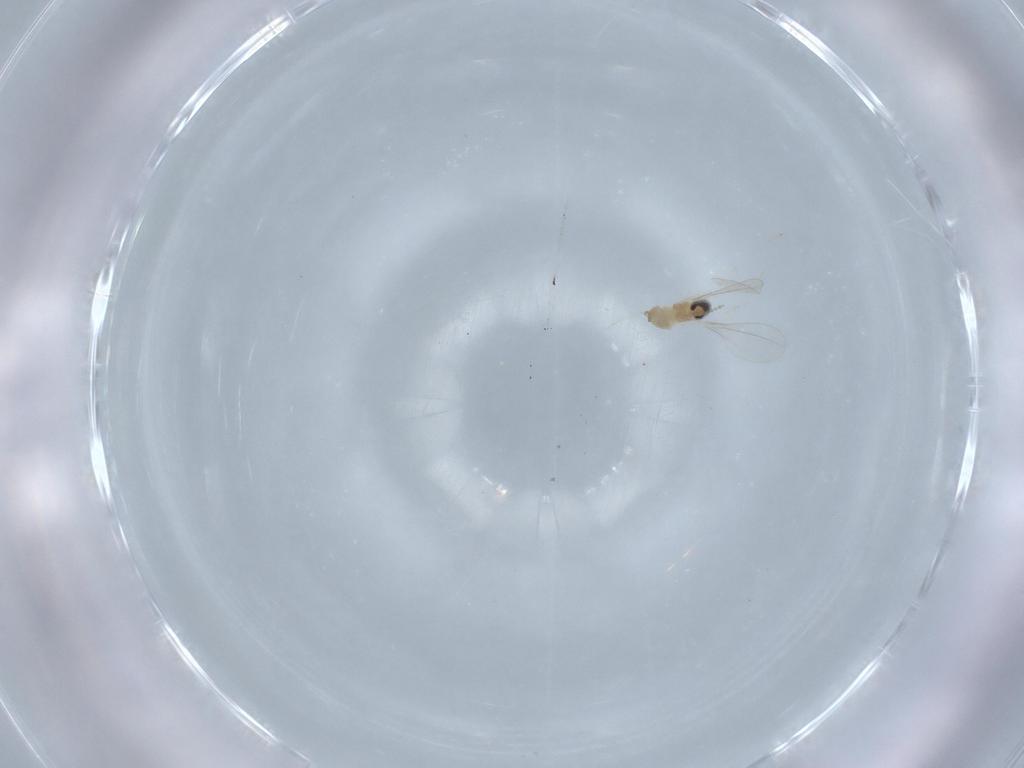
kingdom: Animalia
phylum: Arthropoda
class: Insecta
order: Diptera
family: Cecidomyiidae
